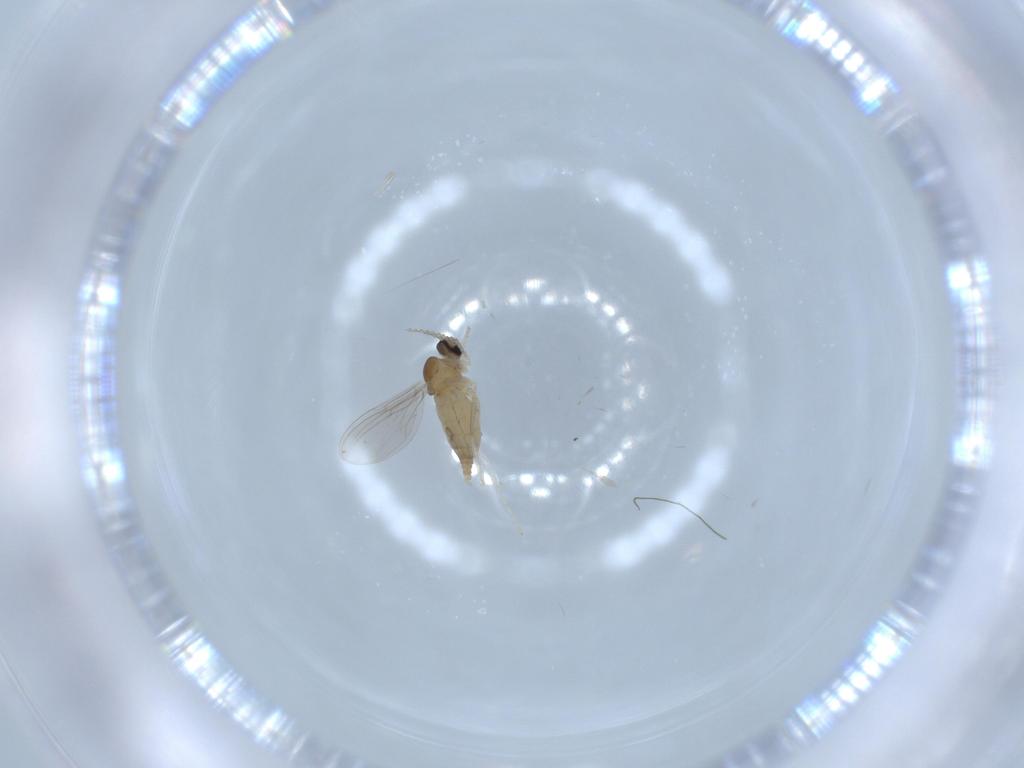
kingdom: Animalia
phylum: Arthropoda
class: Insecta
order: Diptera
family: Cecidomyiidae
